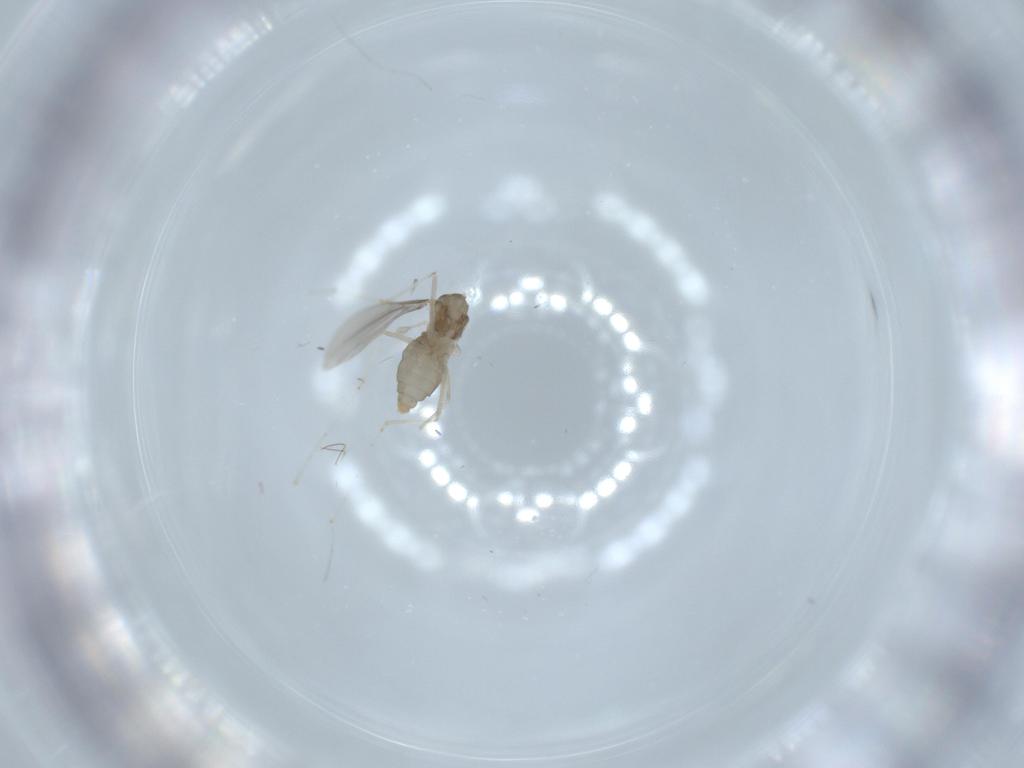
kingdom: Animalia
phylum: Arthropoda
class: Insecta
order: Diptera
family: Cecidomyiidae
